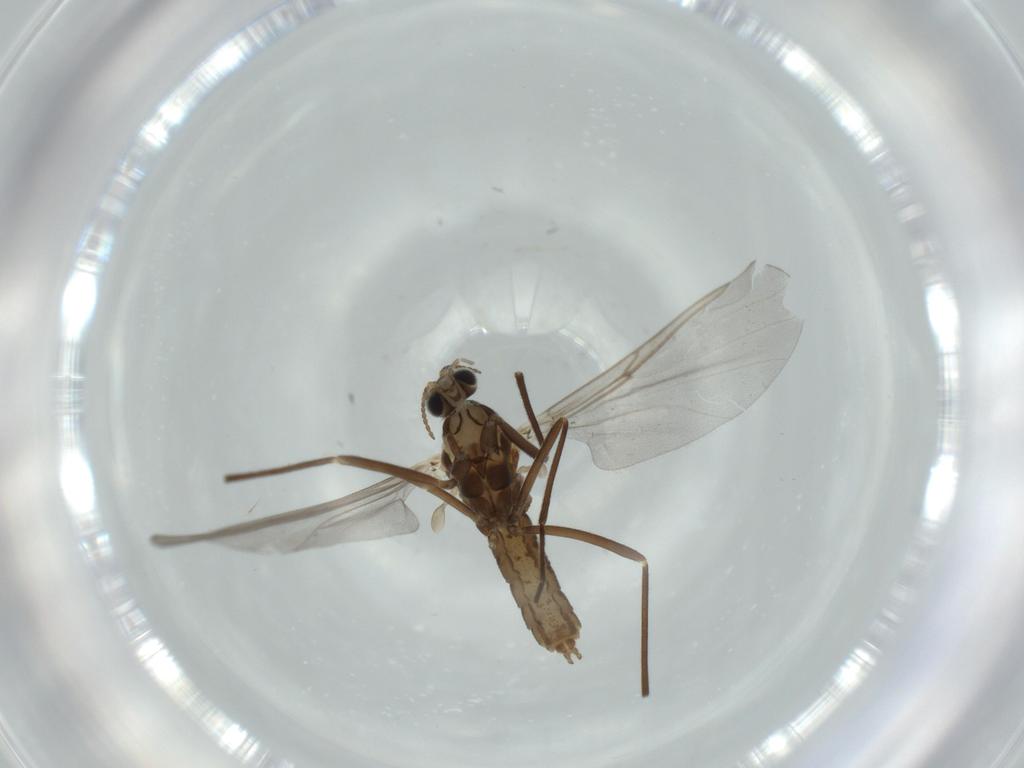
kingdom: Animalia
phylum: Arthropoda
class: Insecta
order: Diptera
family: Cecidomyiidae
